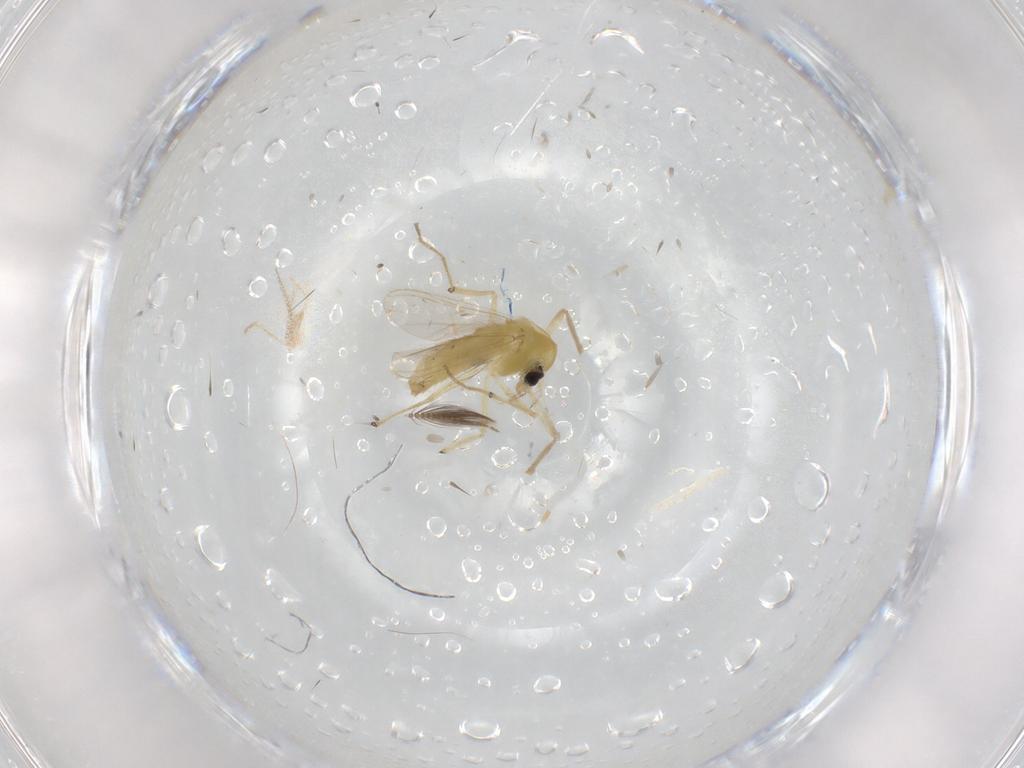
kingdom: Animalia
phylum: Arthropoda
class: Insecta
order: Diptera
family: Chironomidae
